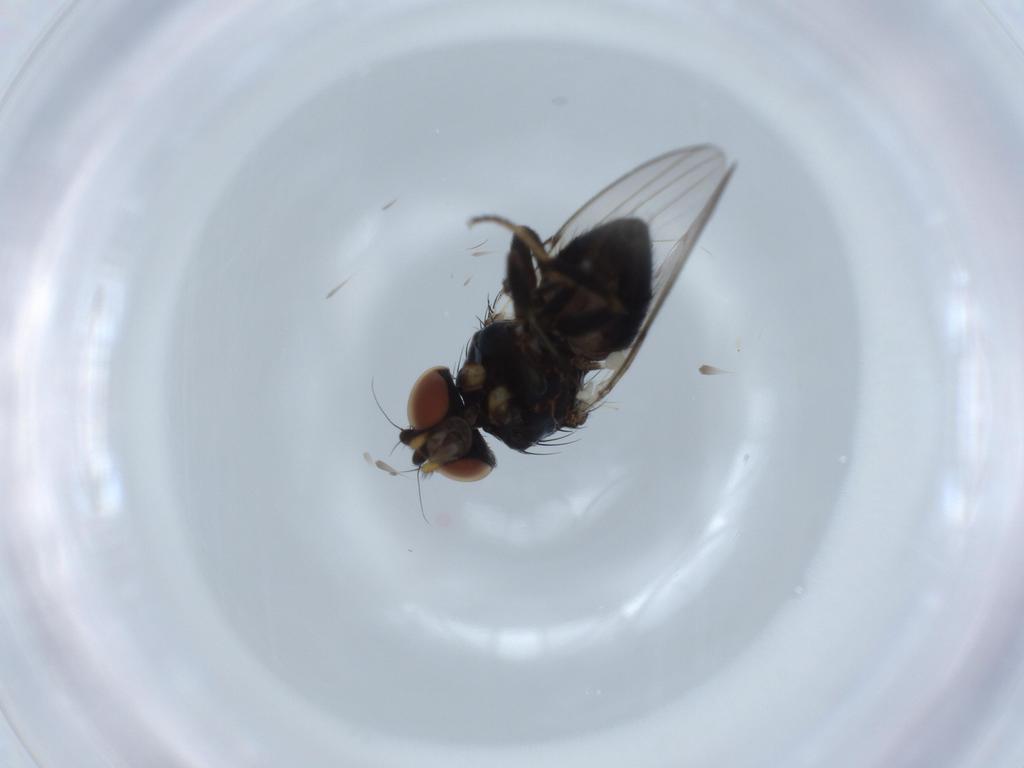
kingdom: Animalia
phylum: Arthropoda
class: Insecta
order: Diptera
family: Milichiidae
